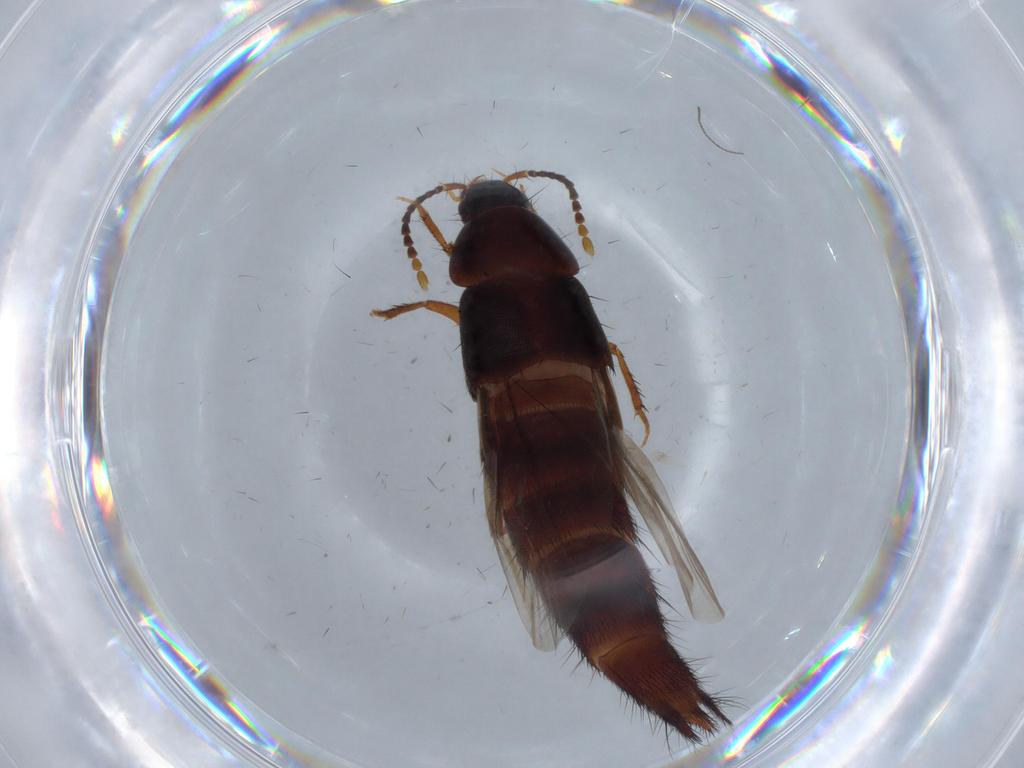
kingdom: Animalia
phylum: Arthropoda
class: Insecta
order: Coleoptera
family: Staphylinidae
